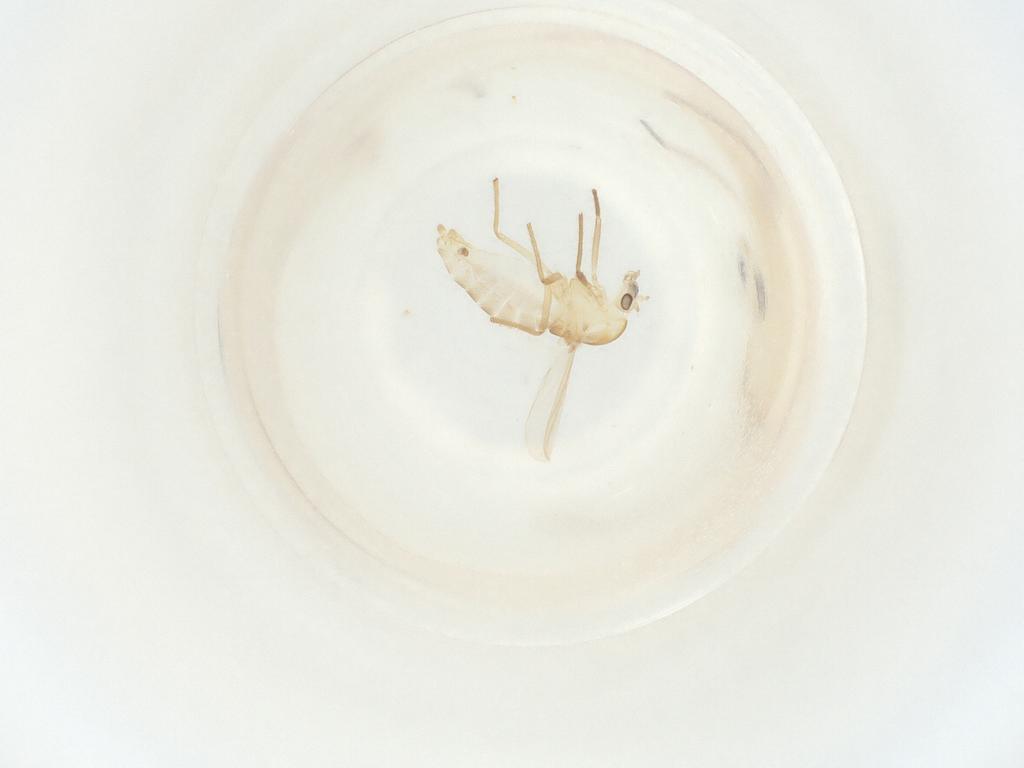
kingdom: Animalia
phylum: Arthropoda
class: Insecta
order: Diptera
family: Chironomidae
